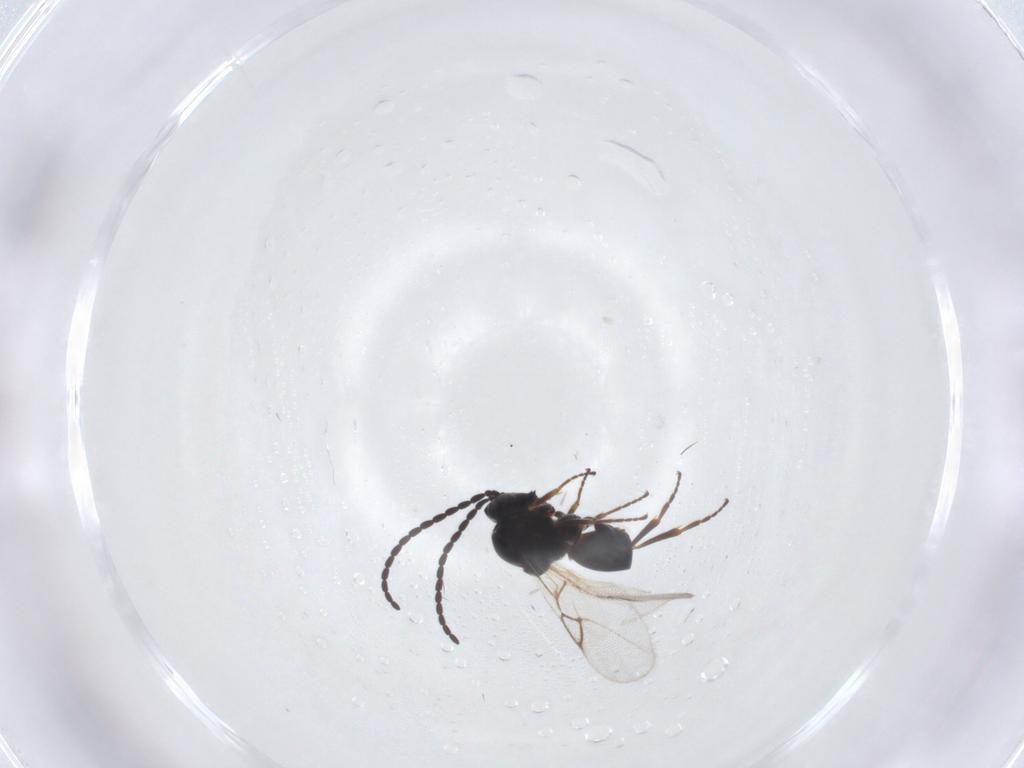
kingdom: Animalia
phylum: Arthropoda
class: Insecta
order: Hymenoptera
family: Figitidae
